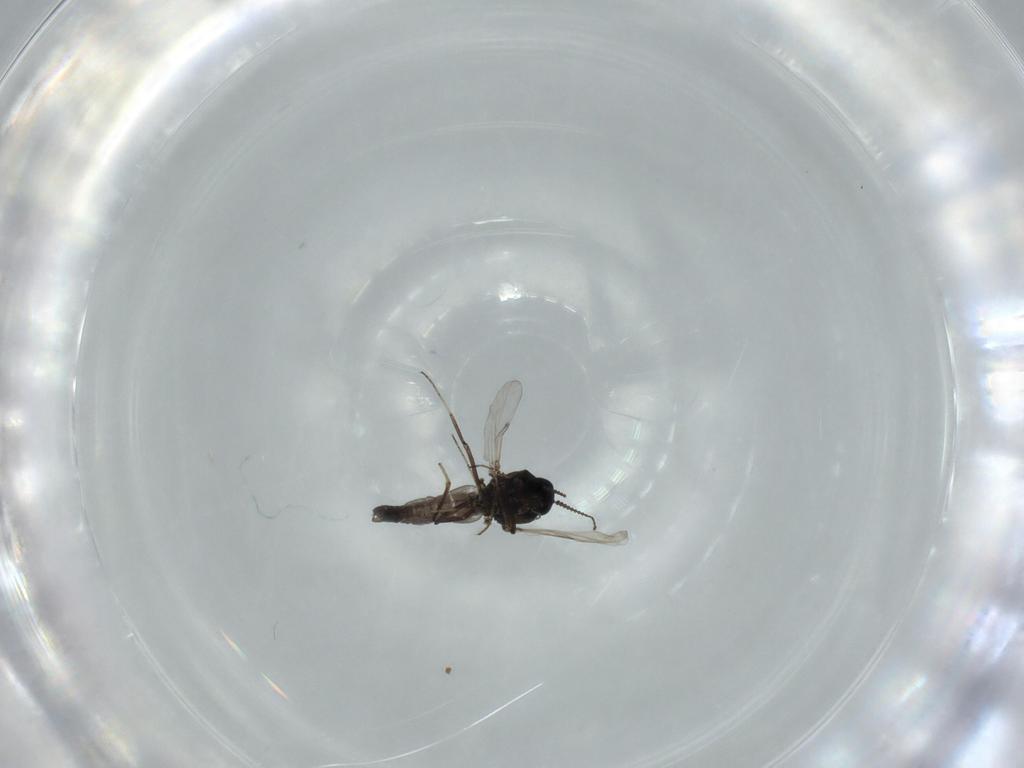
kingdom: Animalia
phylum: Arthropoda
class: Insecta
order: Diptera
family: Chironomidae
